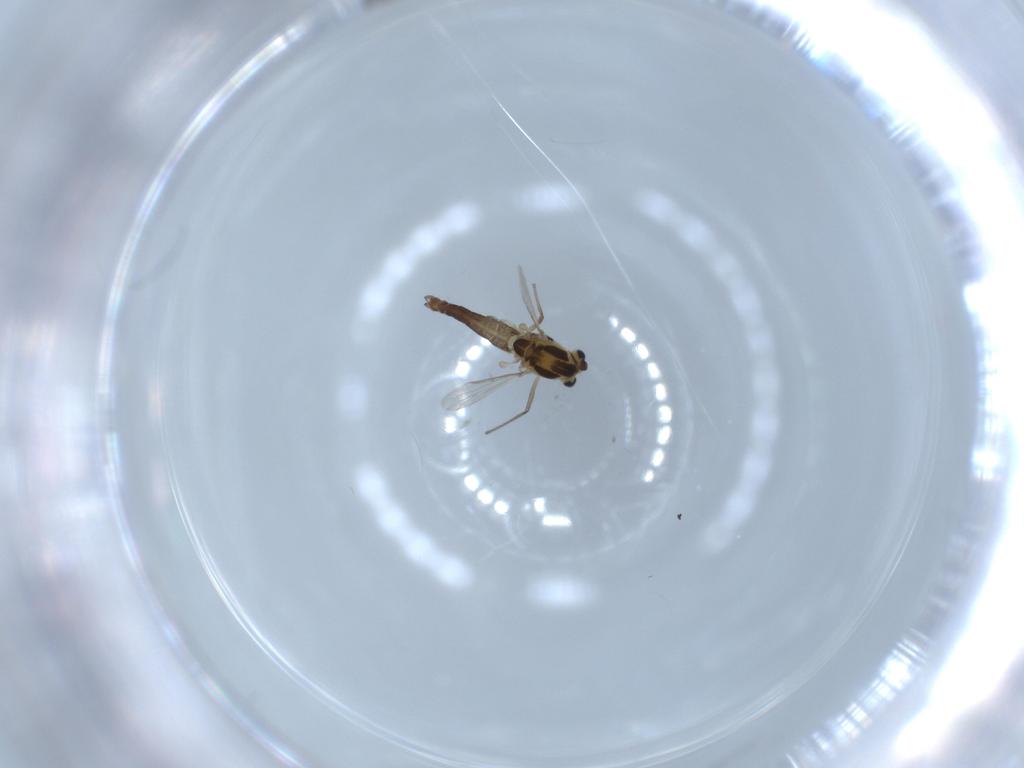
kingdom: Animalia
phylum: Arthropoda
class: Insecta
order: Diptera
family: Chironomidae
